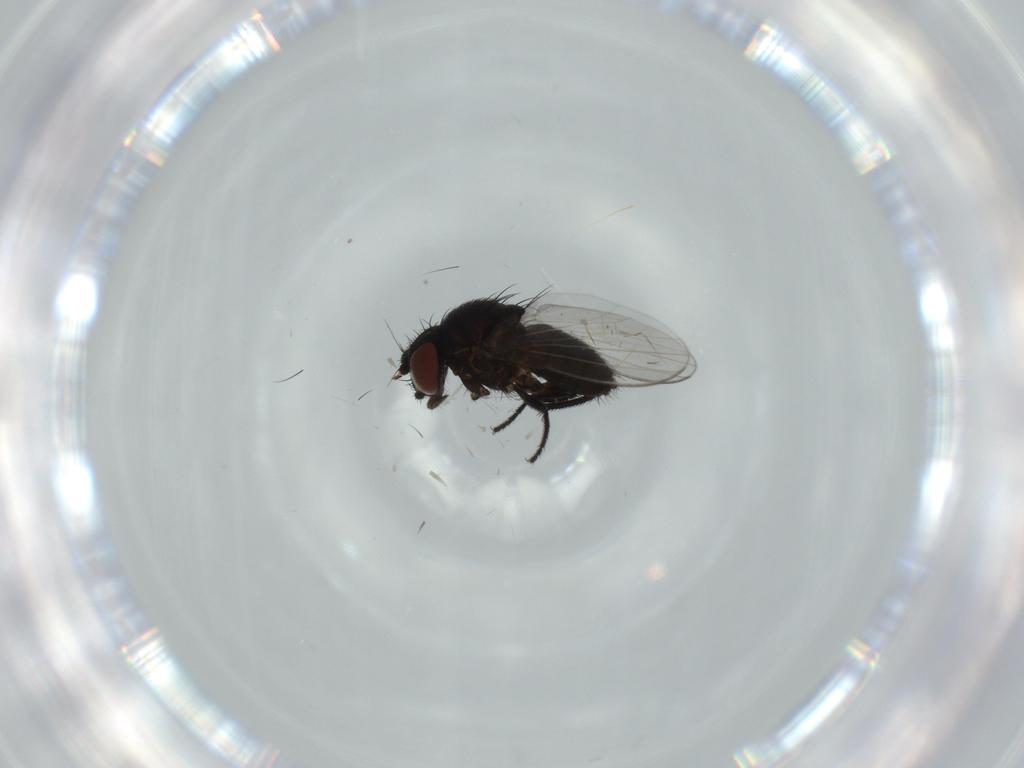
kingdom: Animalia
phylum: Arthropoda
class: Insecta
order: Diptera
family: Milichiidae
